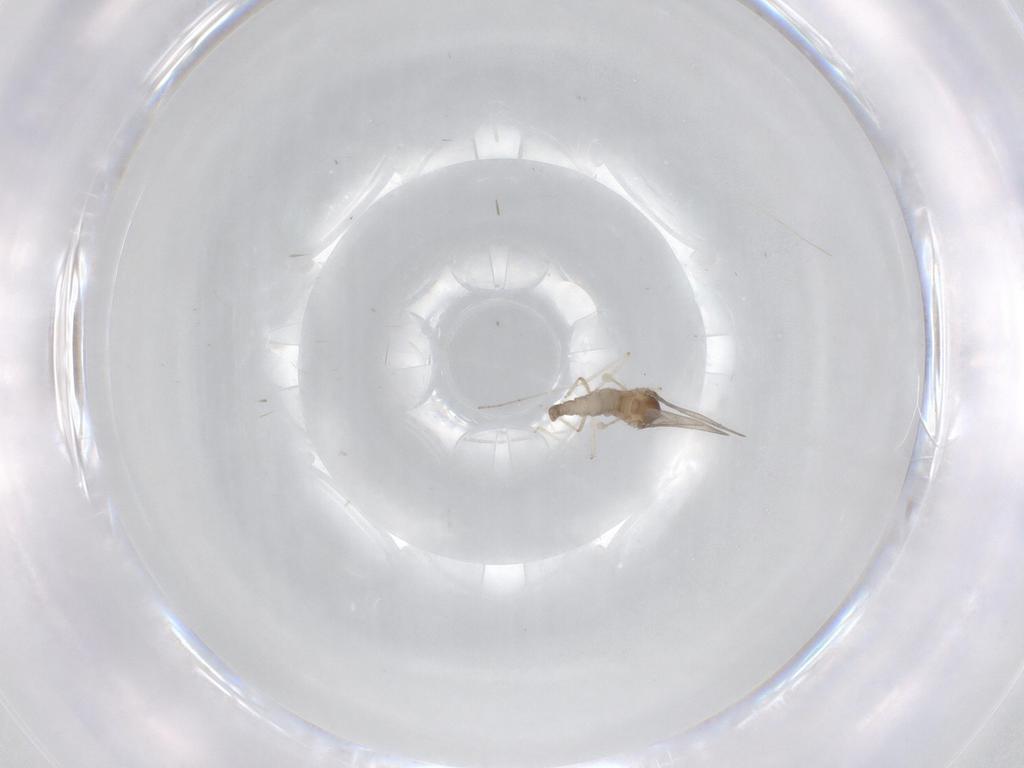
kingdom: Animalia
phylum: Arthropoda
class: Insecta
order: Diptera
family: Cecidomyiidae
